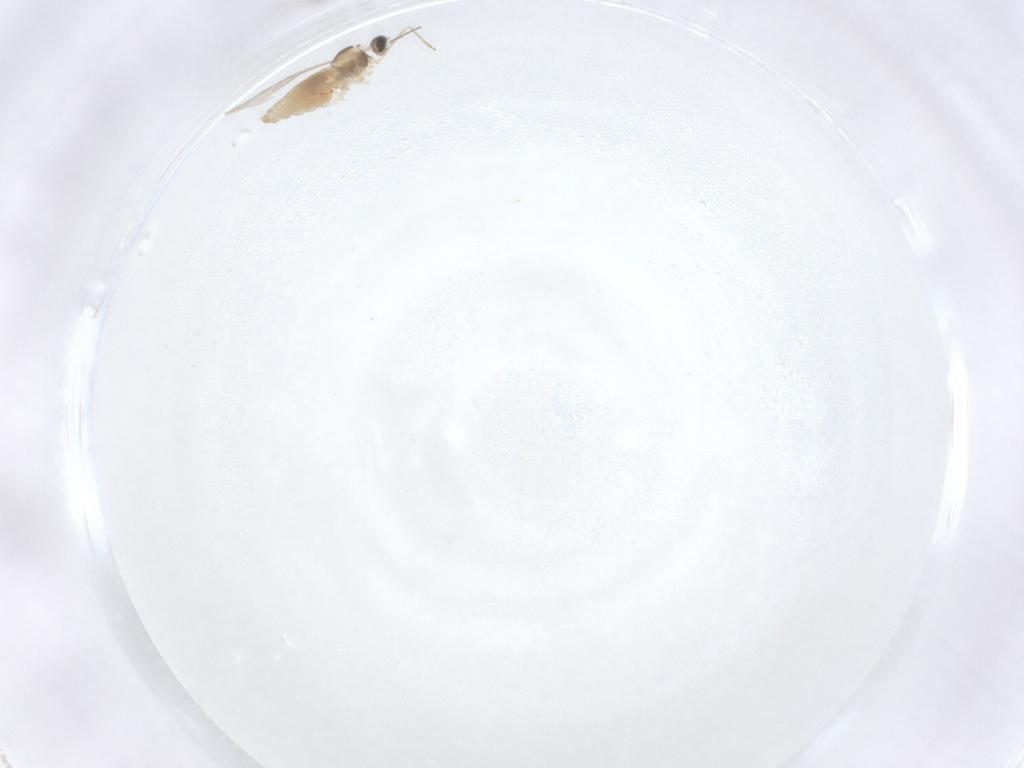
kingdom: Animalia
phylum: Arthropoda
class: Insecta
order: Diptera
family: Cecidomyiidae
